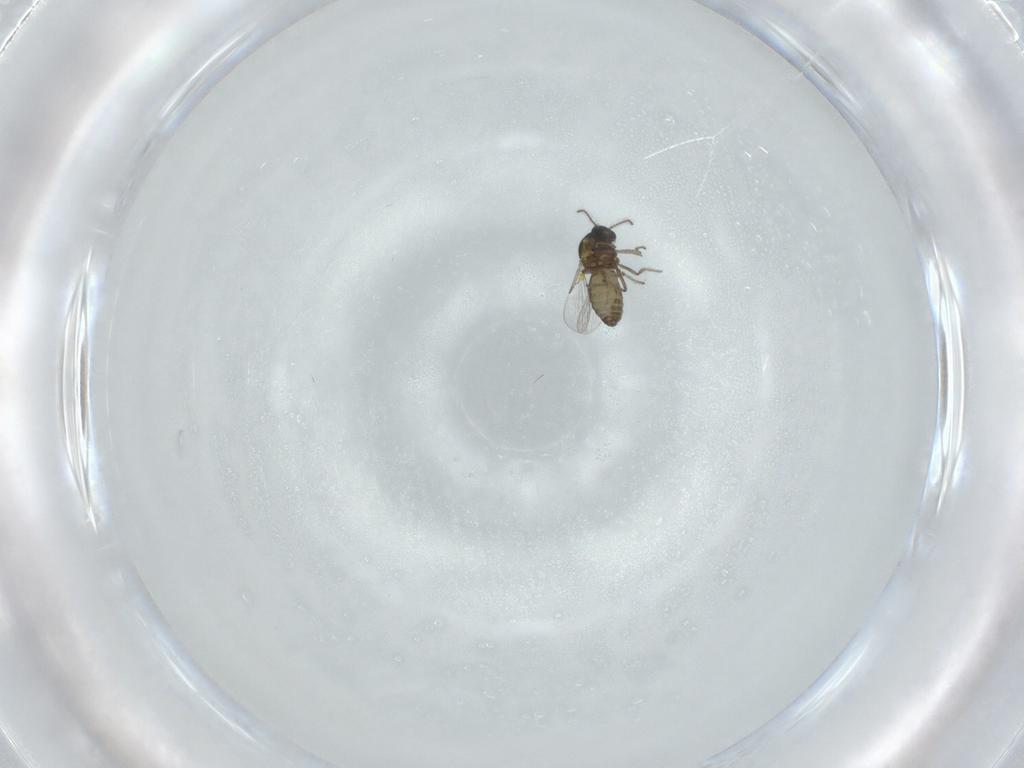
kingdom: Animalia
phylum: Arthropoda
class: Insecta
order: Diptera
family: Ceratopogonidae
